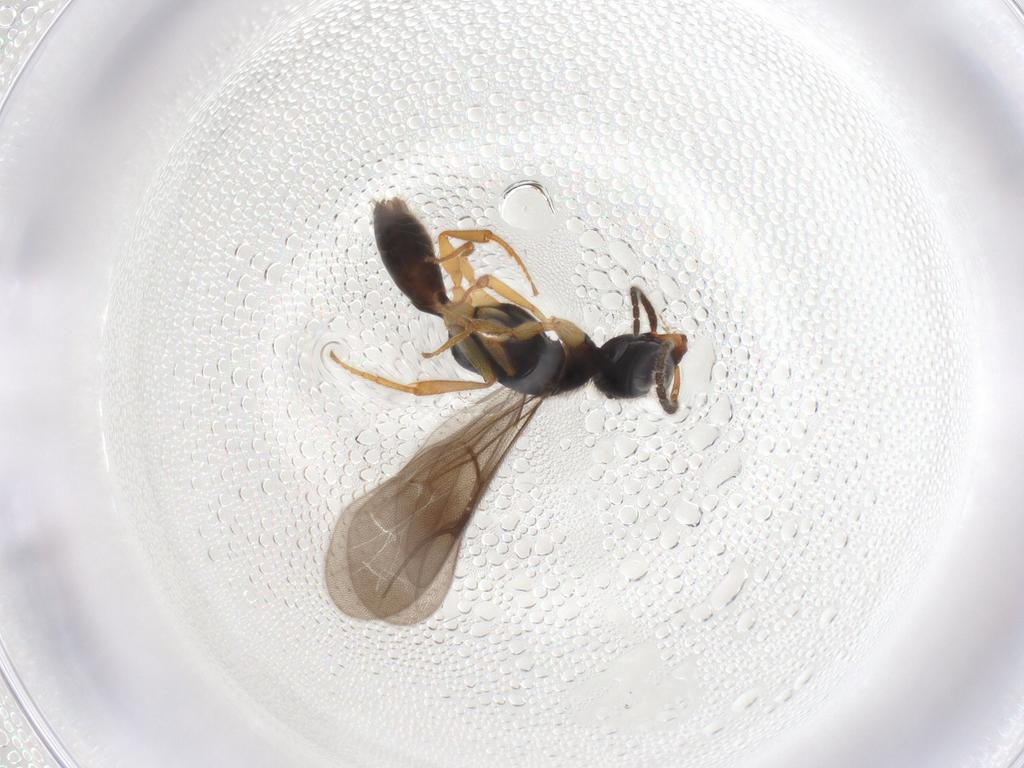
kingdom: Animalia
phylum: Arthropoda
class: Insecta
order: Hymenoptera
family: Bethylidae
